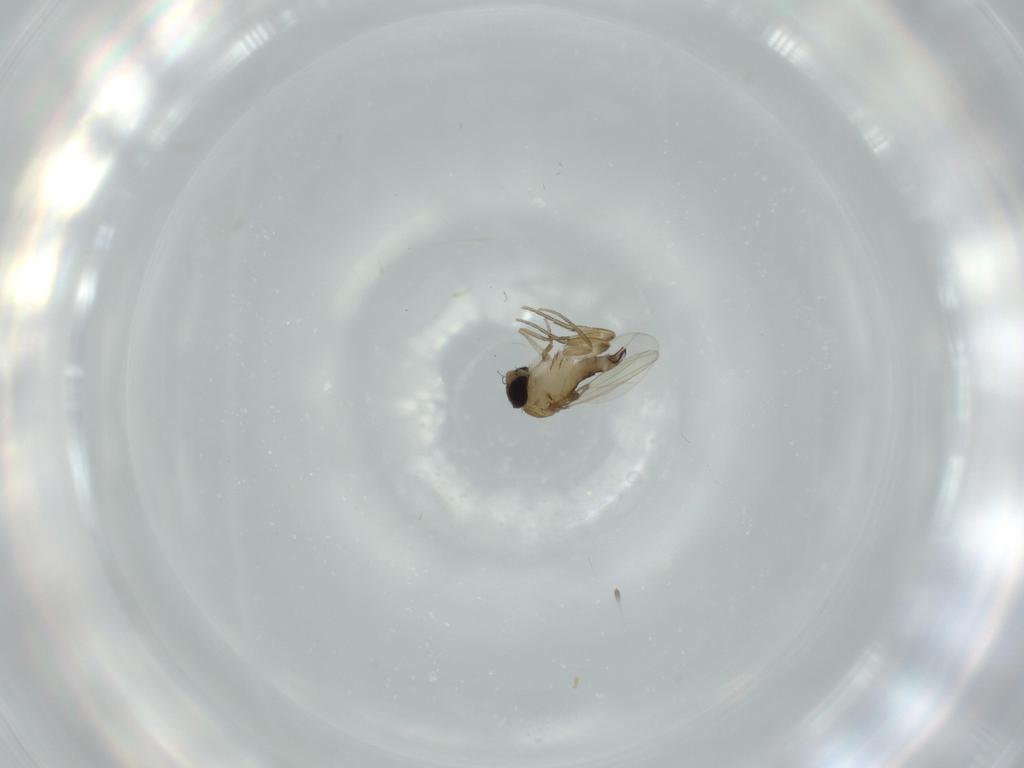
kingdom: Animalia
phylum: Arthropoda
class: Insecta
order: Diptera
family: Phoridae
